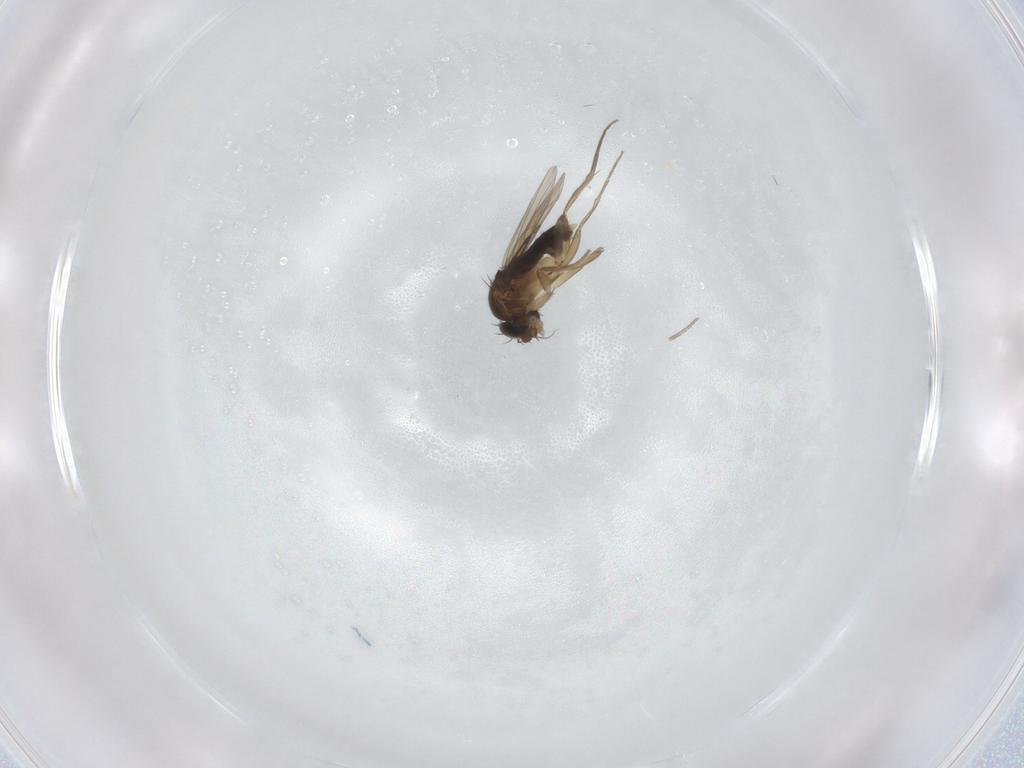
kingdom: Animalia
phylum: Arthropoda
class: Insecta
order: Diptera
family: Phoridae
